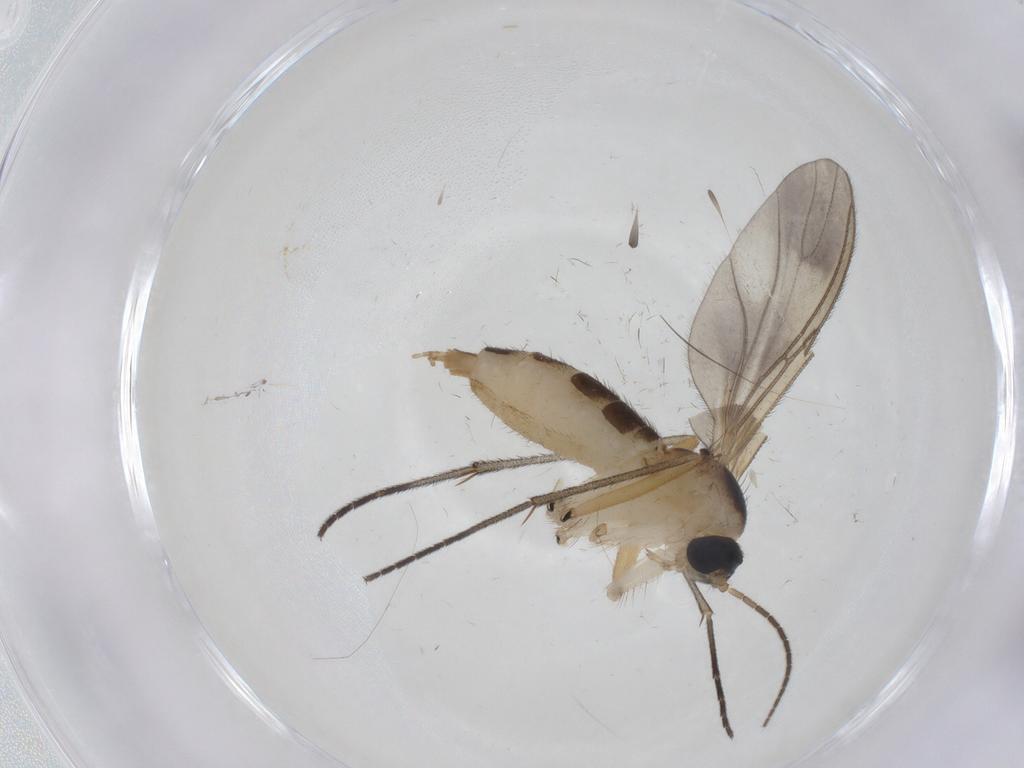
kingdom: Animalia
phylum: Arthropoda
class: Insecta
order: Diptera
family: Sciaridae
